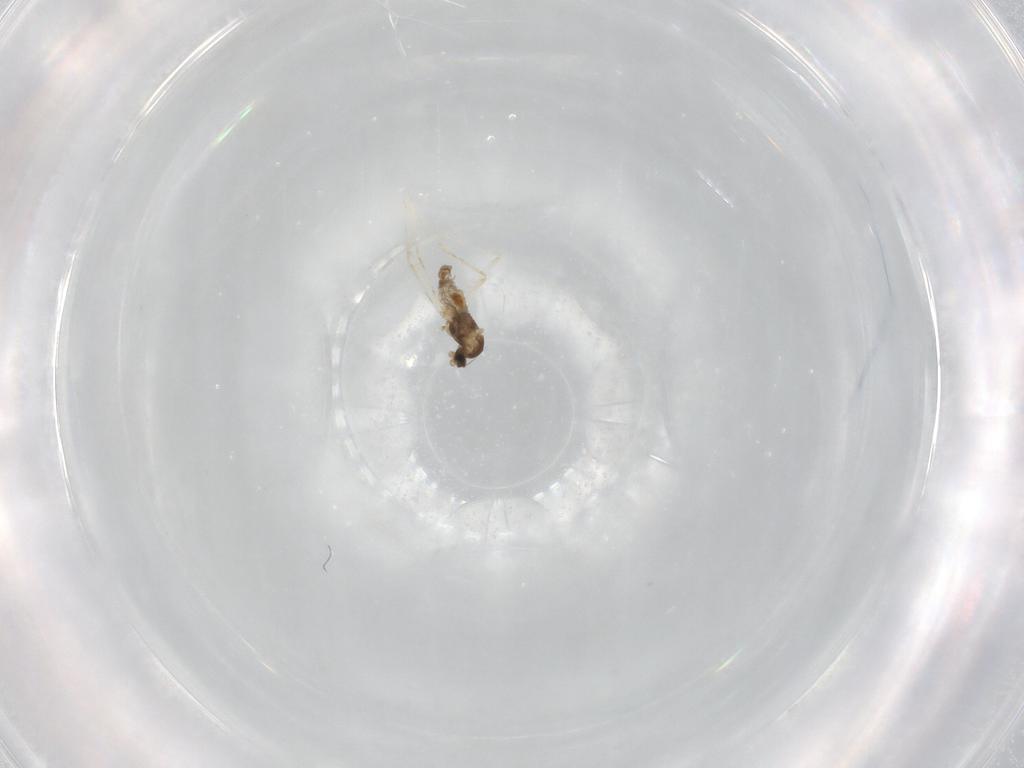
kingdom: Animalia
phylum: Arthropoda
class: Insecta
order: Diptera
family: Cecidomyiidae
